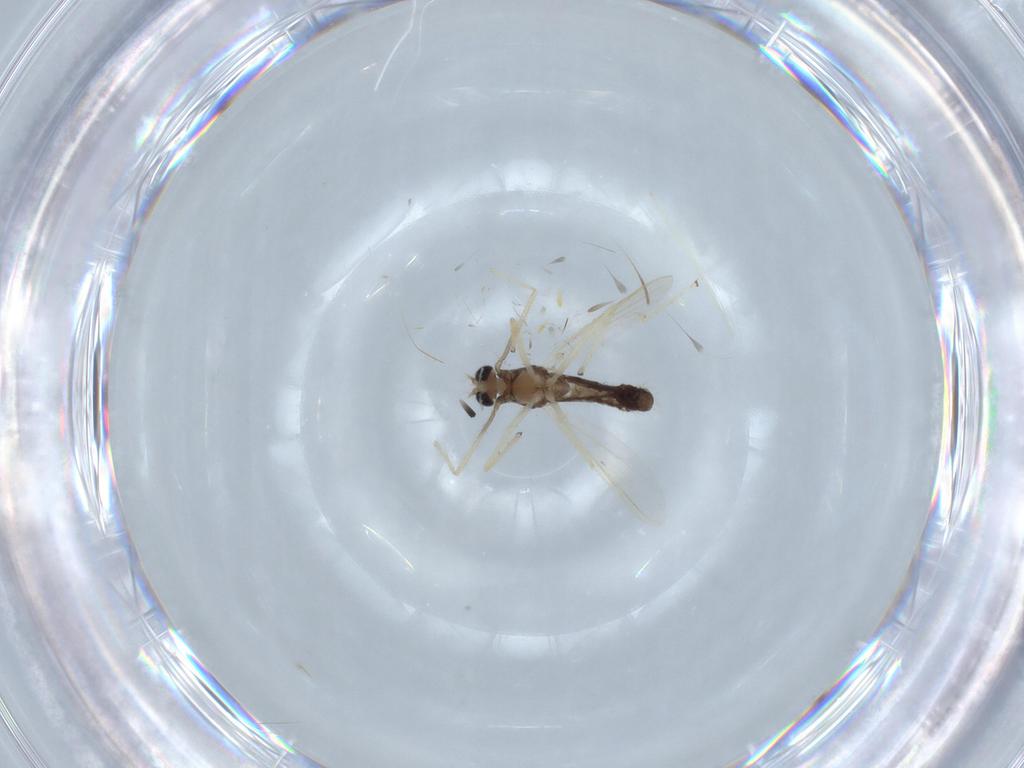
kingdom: Animalia
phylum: Arthropoda
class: Insecta
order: Diptera
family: Chironomidae
